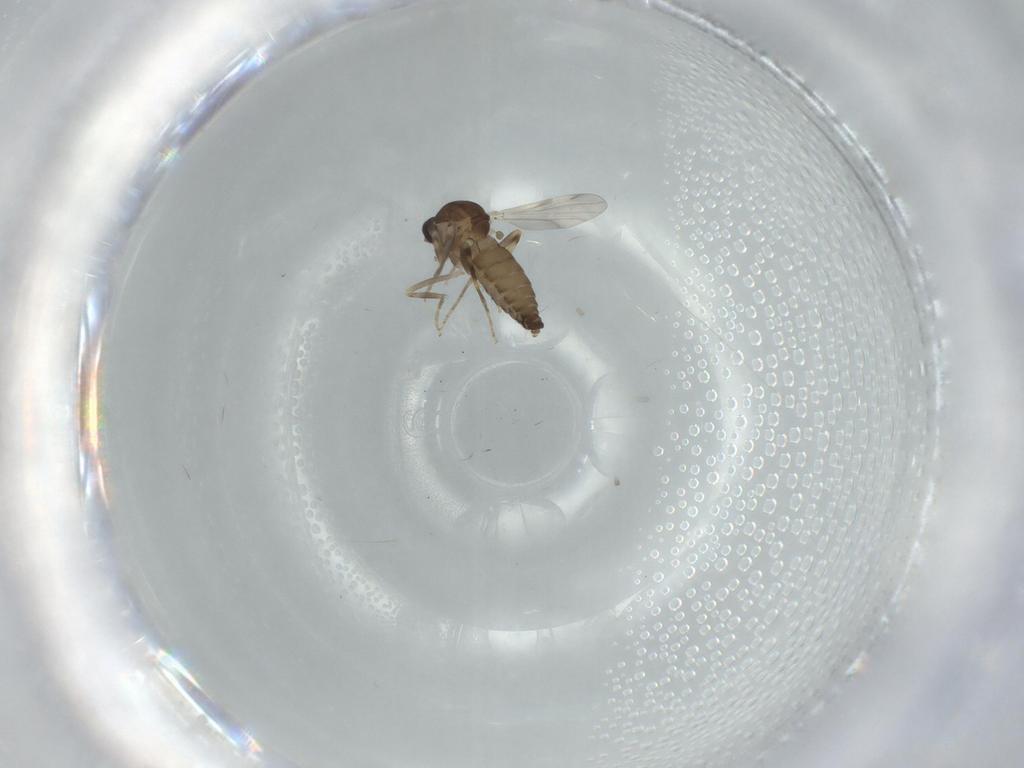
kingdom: Animalia
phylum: Arthropoda
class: Insecta
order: Diptera
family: Ceratopogonidae
